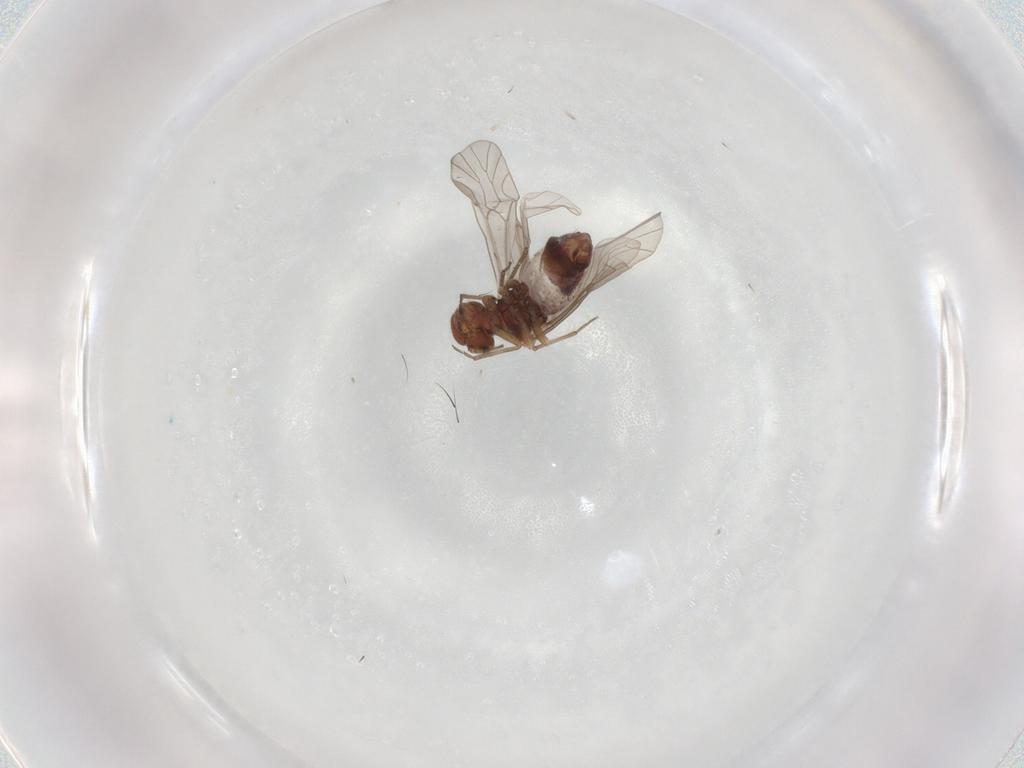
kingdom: Animalia
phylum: Arthropoda
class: Insecta
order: Psocodea
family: Lachesillidae
